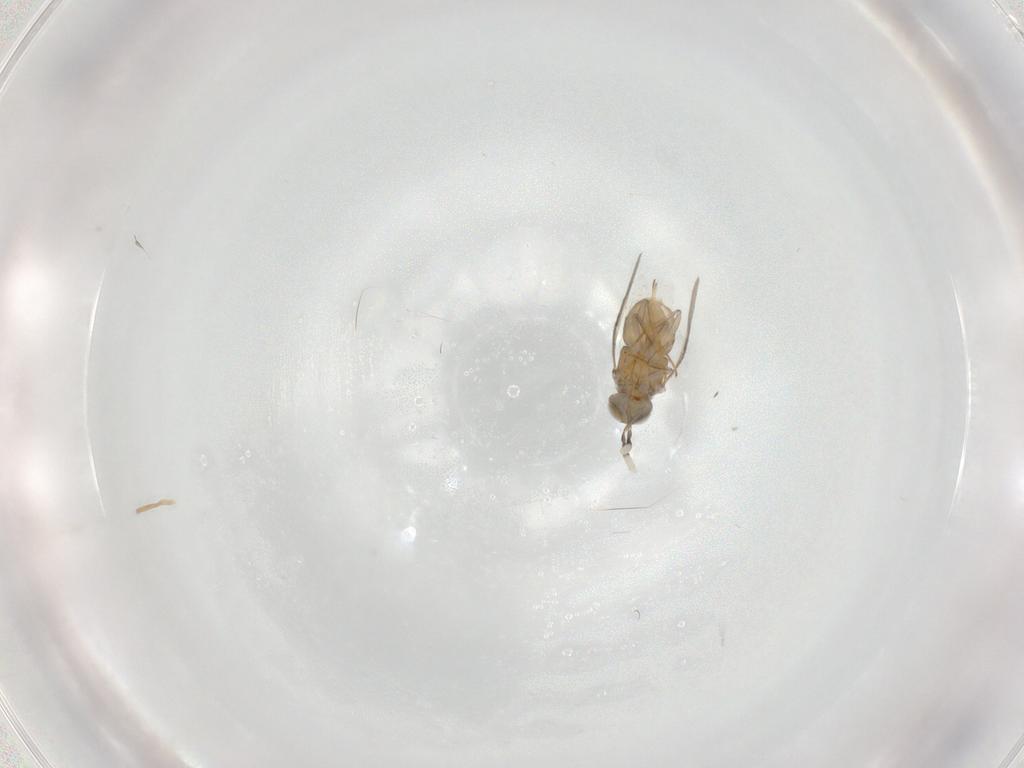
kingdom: Animalia
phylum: Arthropoda
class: Insecta
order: Hymenoptera
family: Encyrtidae
